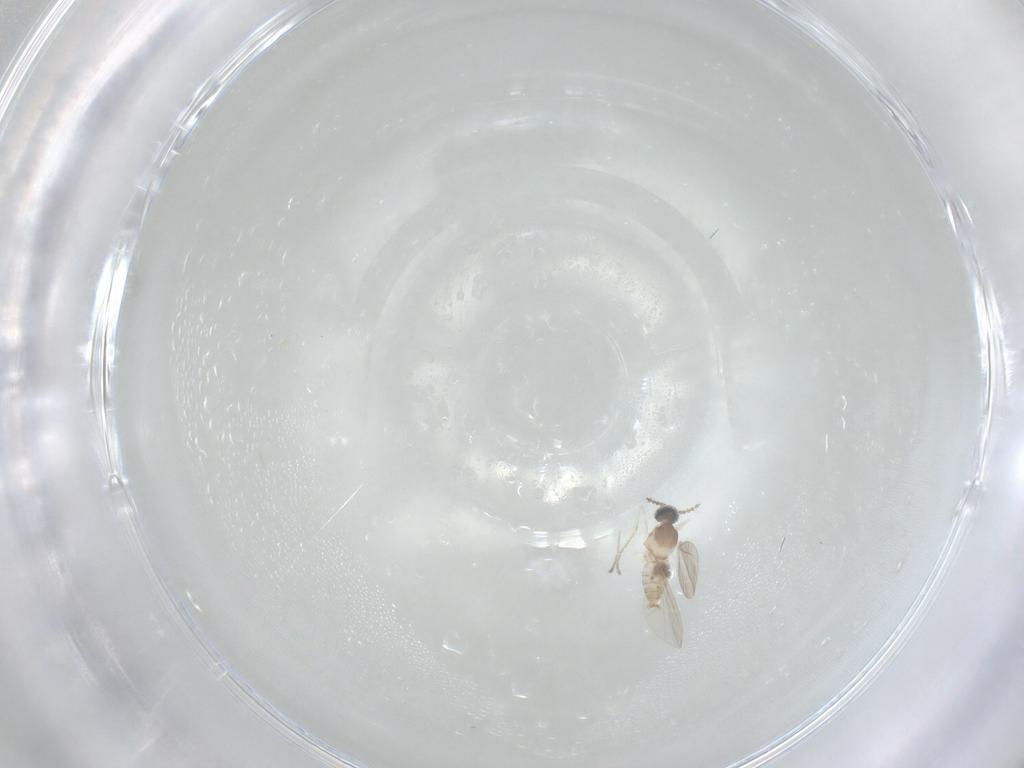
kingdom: Animalia
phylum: Arthropoda
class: Insecta
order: Diptera
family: Cecidomyiidae
